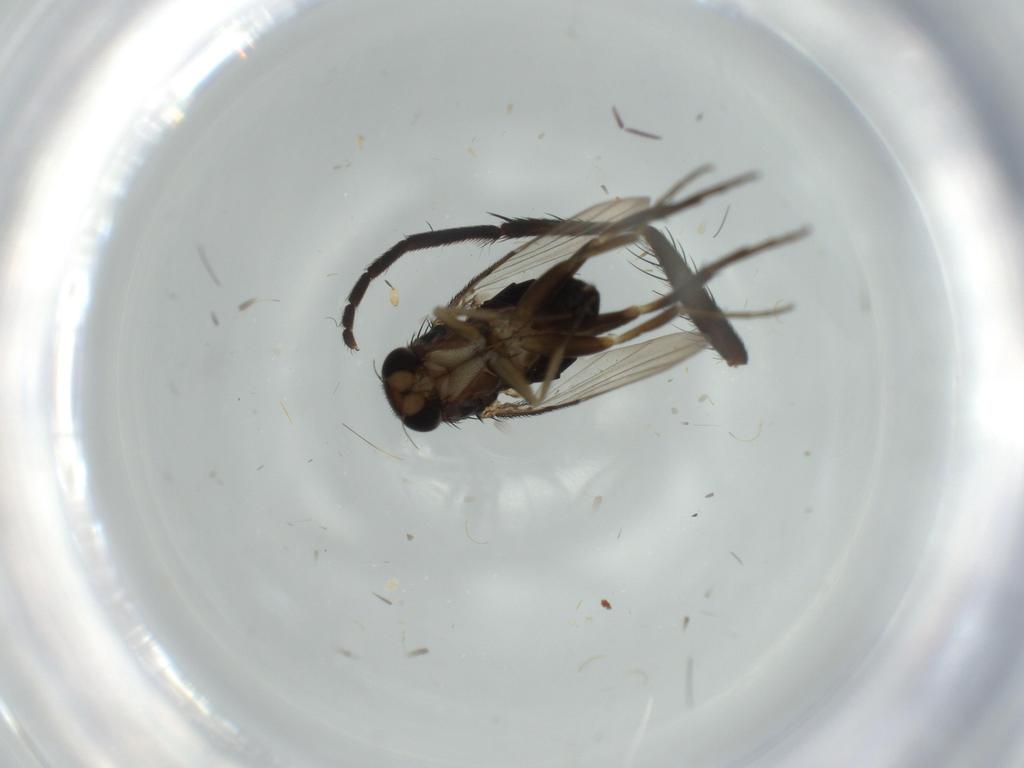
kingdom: Animalia
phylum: Arthropoda
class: Insecta
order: Diptera
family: Phoridae
